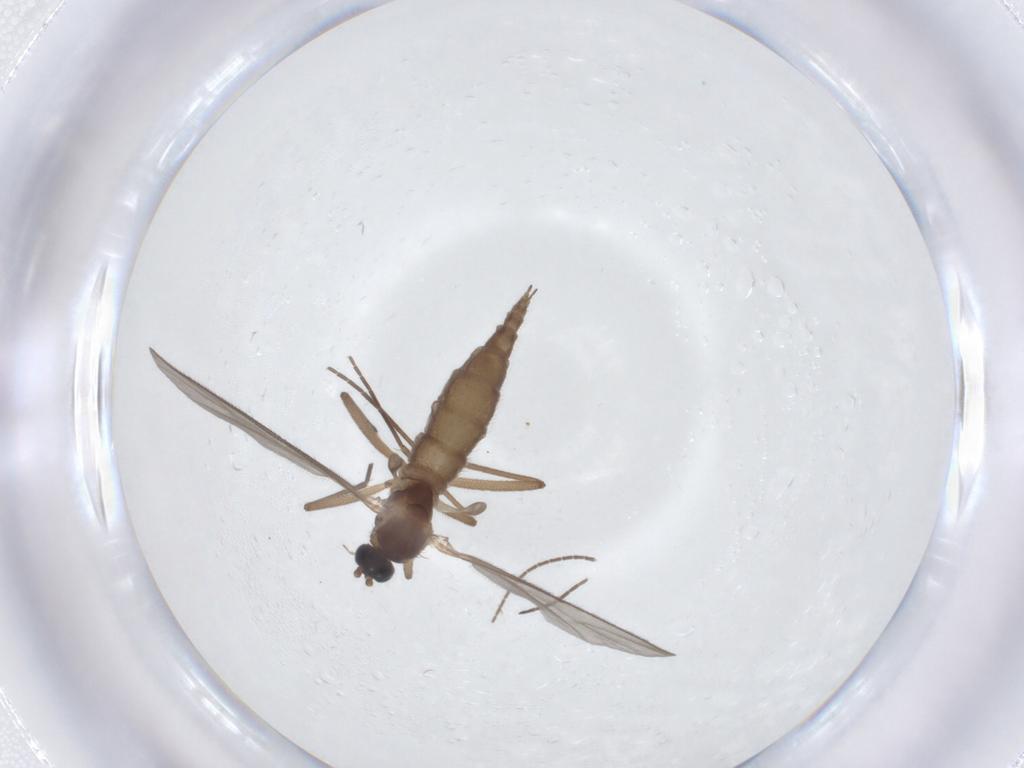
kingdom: Animalia
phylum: Arthropoda
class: Insecta
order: Diptera
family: Sciaridae
